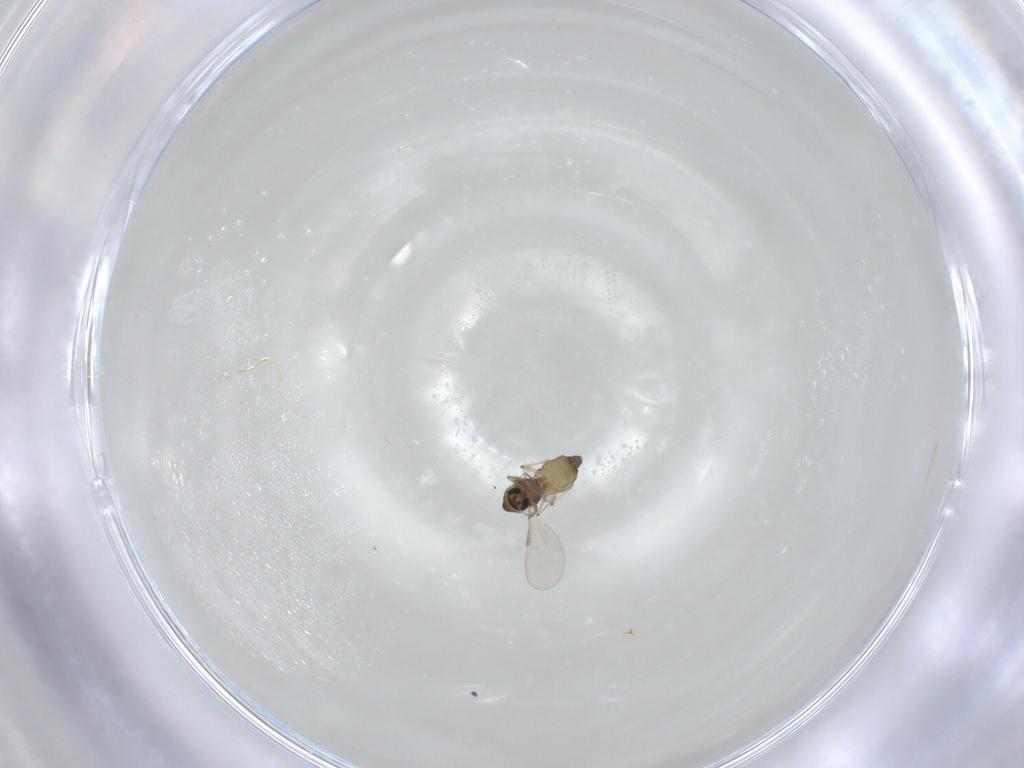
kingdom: Animalia
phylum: Arthropoda
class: Insecta
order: Diptera
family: Chironomidae
